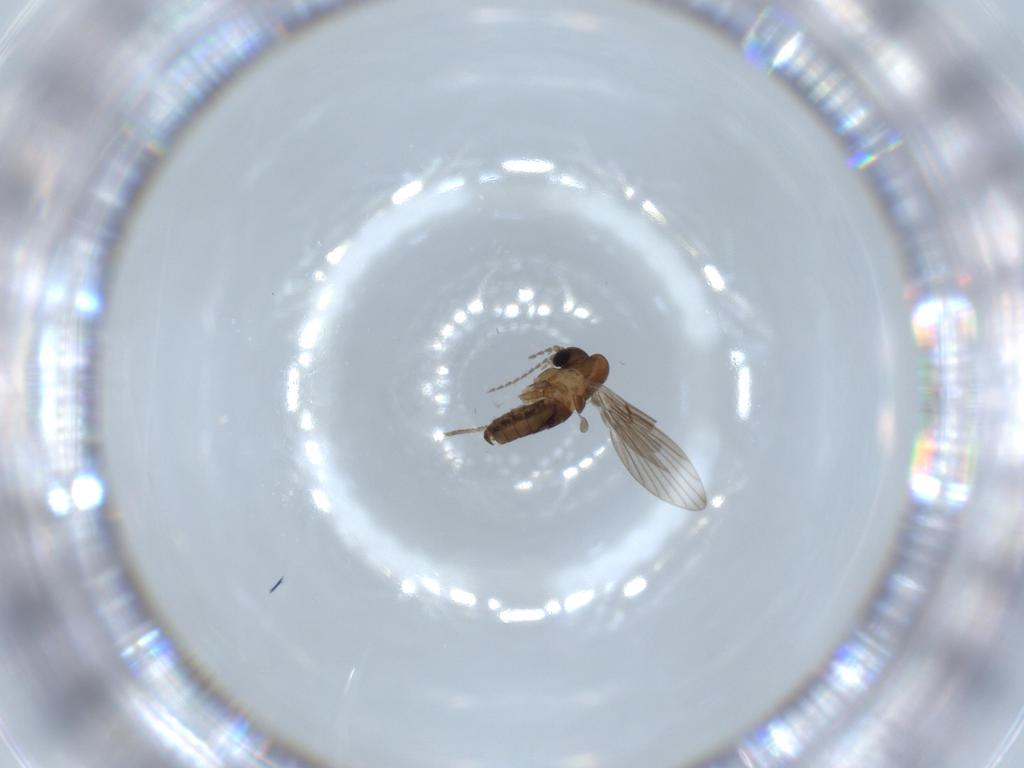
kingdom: Animalia
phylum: Arthropoda
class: Insecta
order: Diptera
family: Psychodidae
